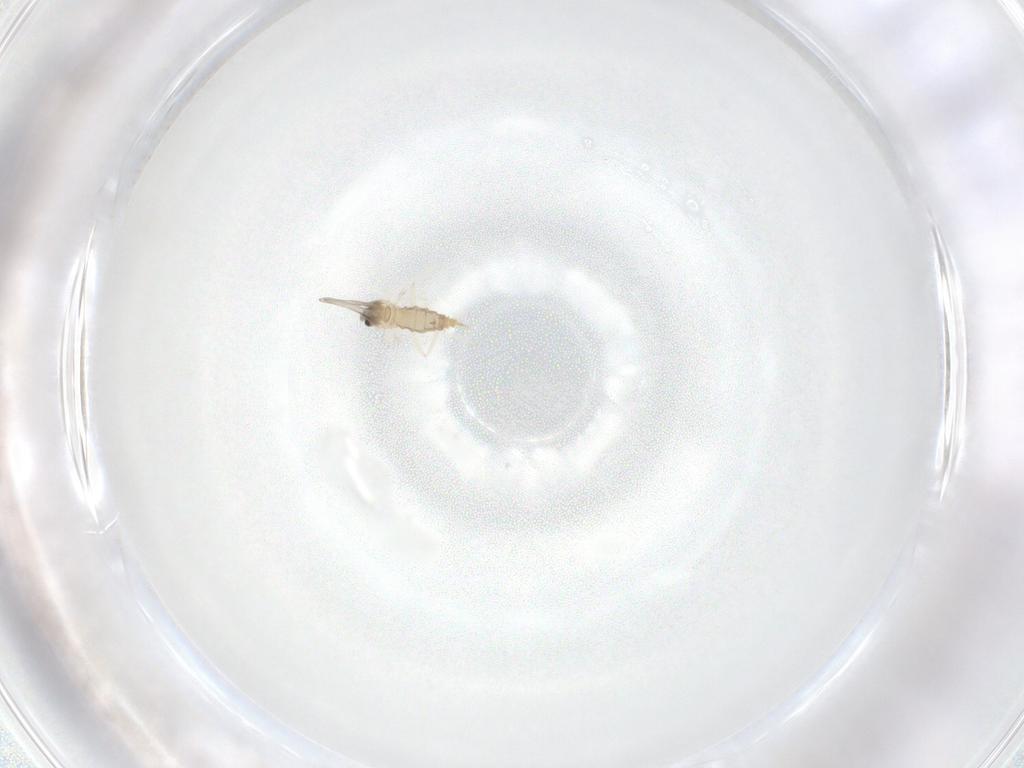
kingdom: Animalia
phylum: Arthropoda
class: Insecta
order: Diptera
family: Cecidomyiidae
